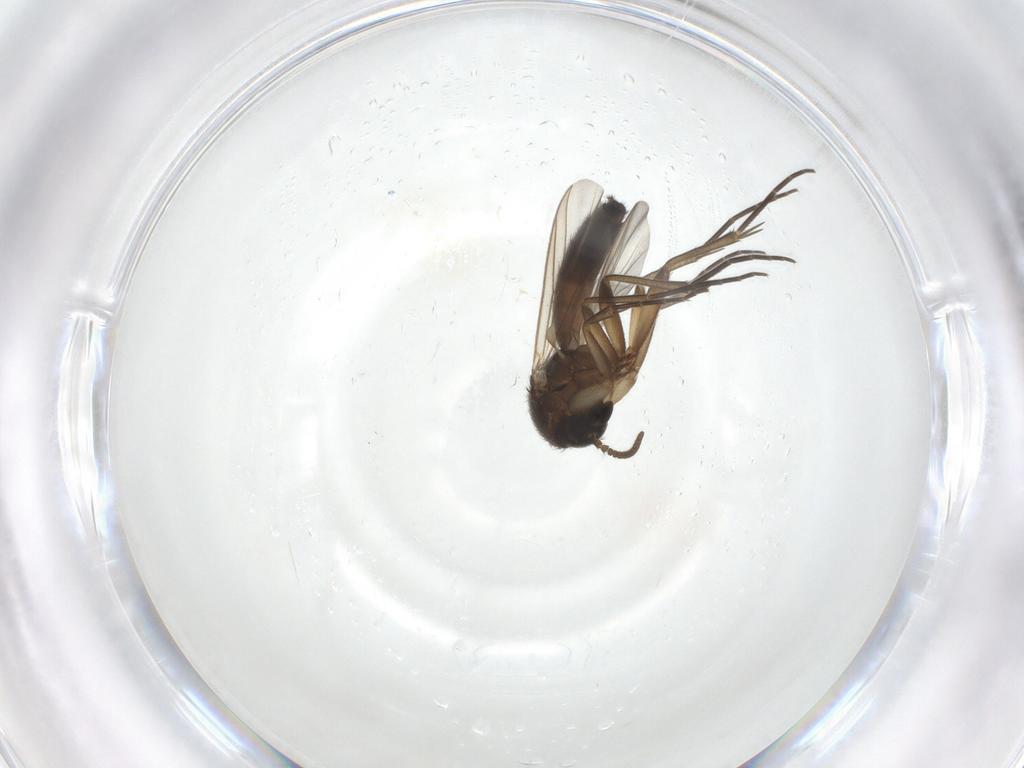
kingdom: Animalia
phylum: Arthropoda
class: Insecta
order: Diptera
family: Mycetophilidae
